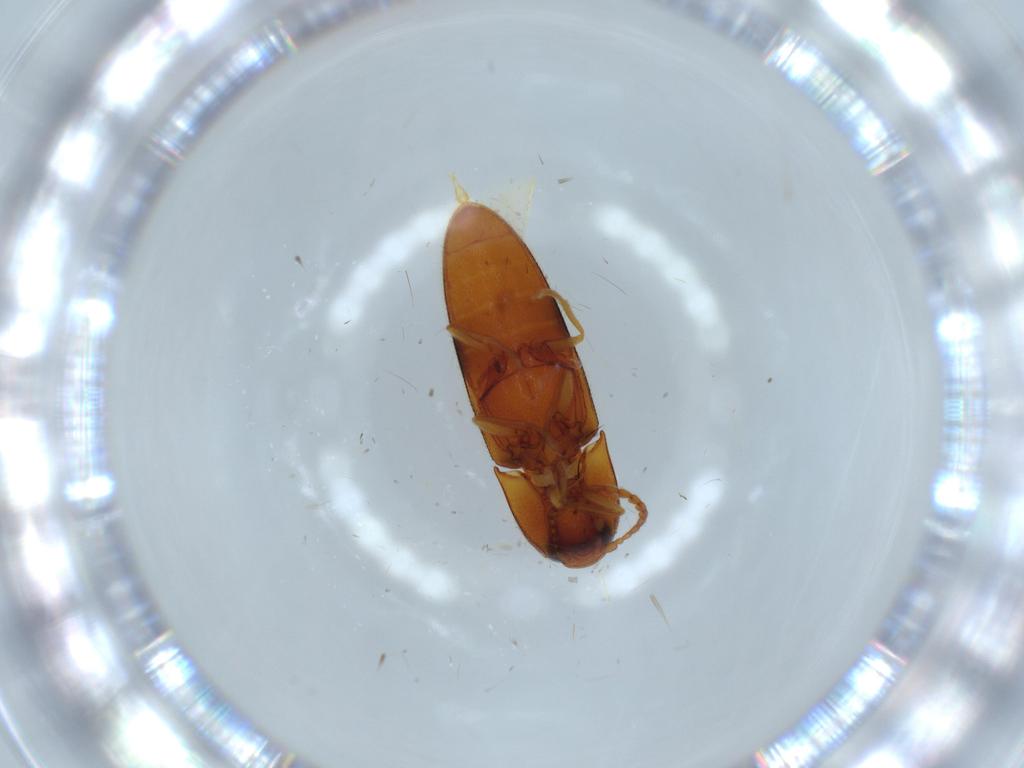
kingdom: Animalia
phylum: Arthropoda
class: Insecta
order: Coleoptera
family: Elateridae
